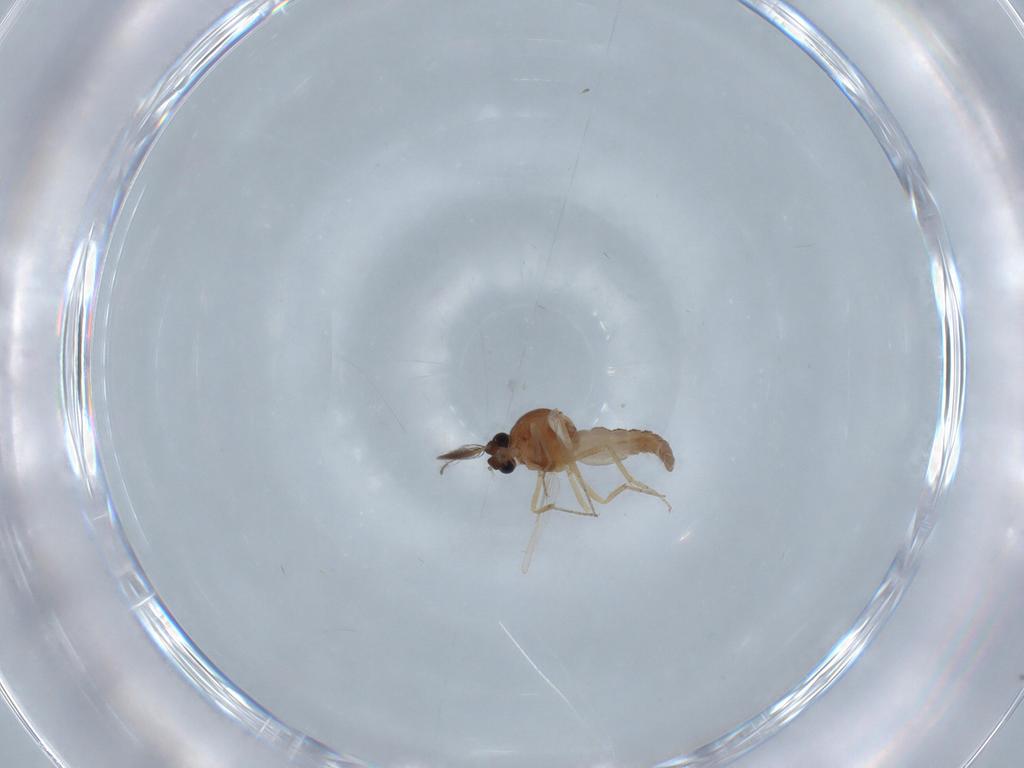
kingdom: Animalia
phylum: Arthropoda
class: Insecta
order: Diptera
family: Ceratopogonidae
